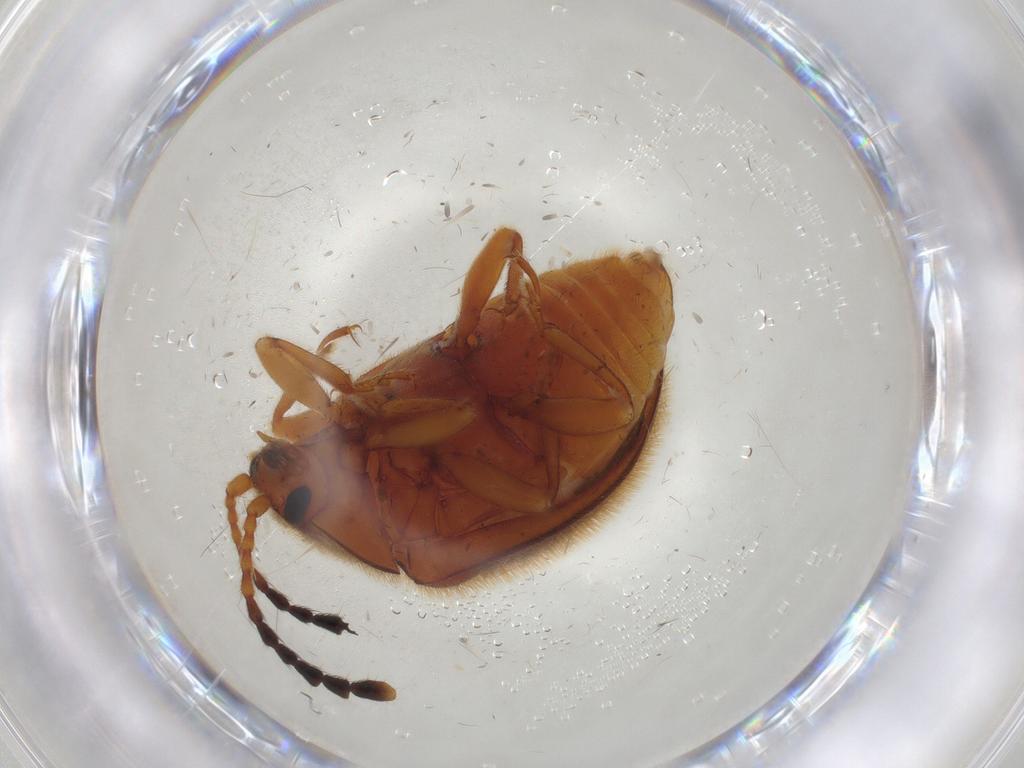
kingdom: Animalia
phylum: Arthropoda
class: Insecta
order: Coleoptera
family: Endomychidae
